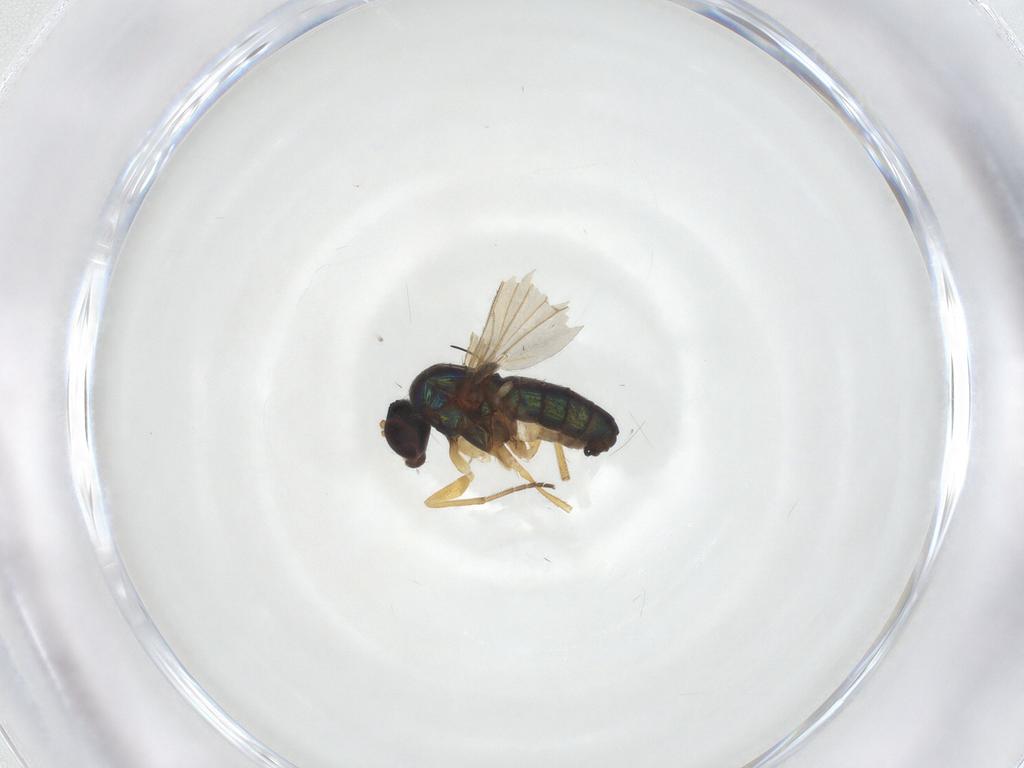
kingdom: Animalia
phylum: Arthropoda
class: Insecta
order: Diptera
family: Dolichopodidae
